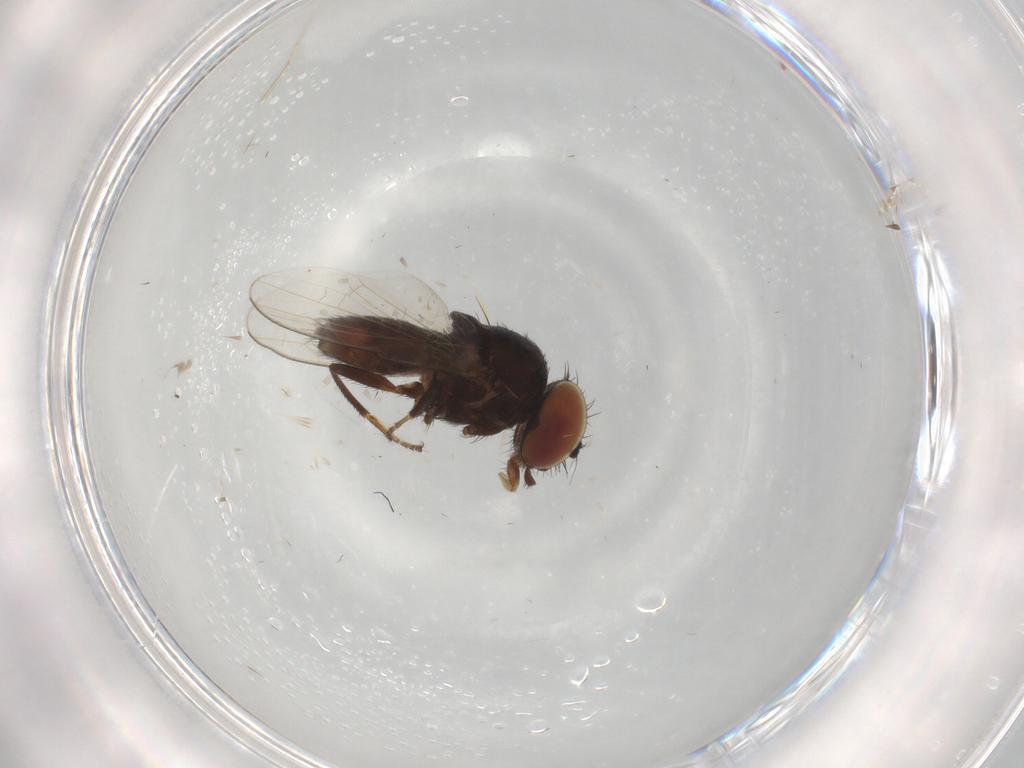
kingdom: Animalia
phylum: Arthropoda
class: Insecta
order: Diptera
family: Milichiidae
